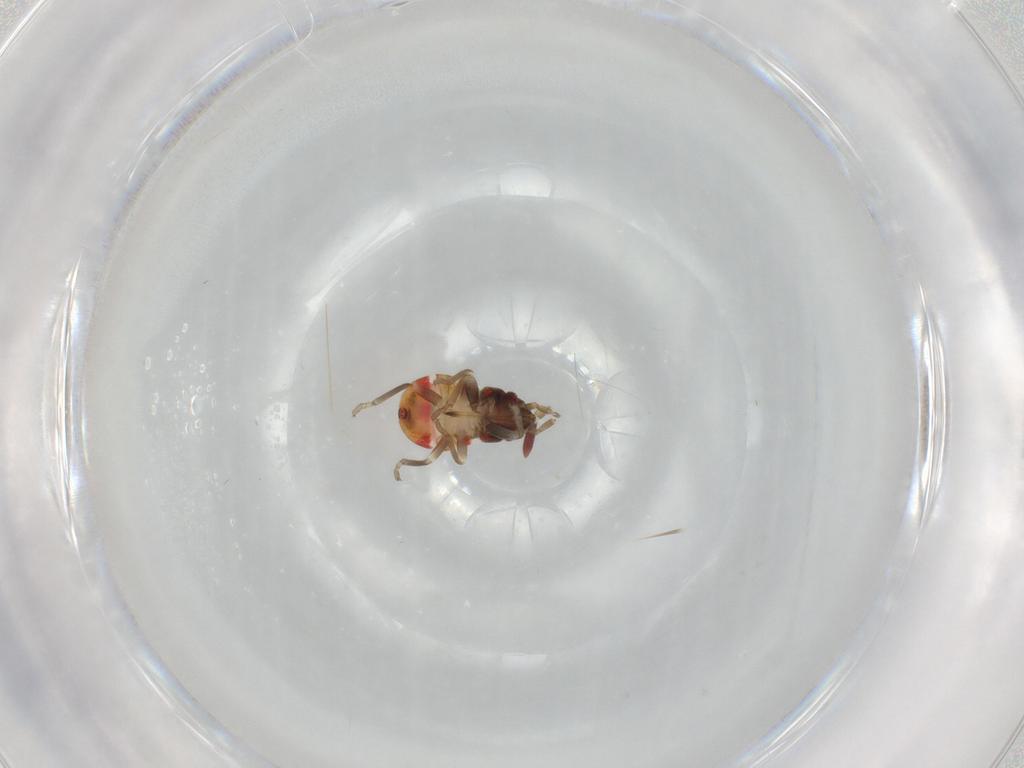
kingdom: Animalia
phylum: Arthropoda
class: Insecta
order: Hemiptera
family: Rhyparochromidae
